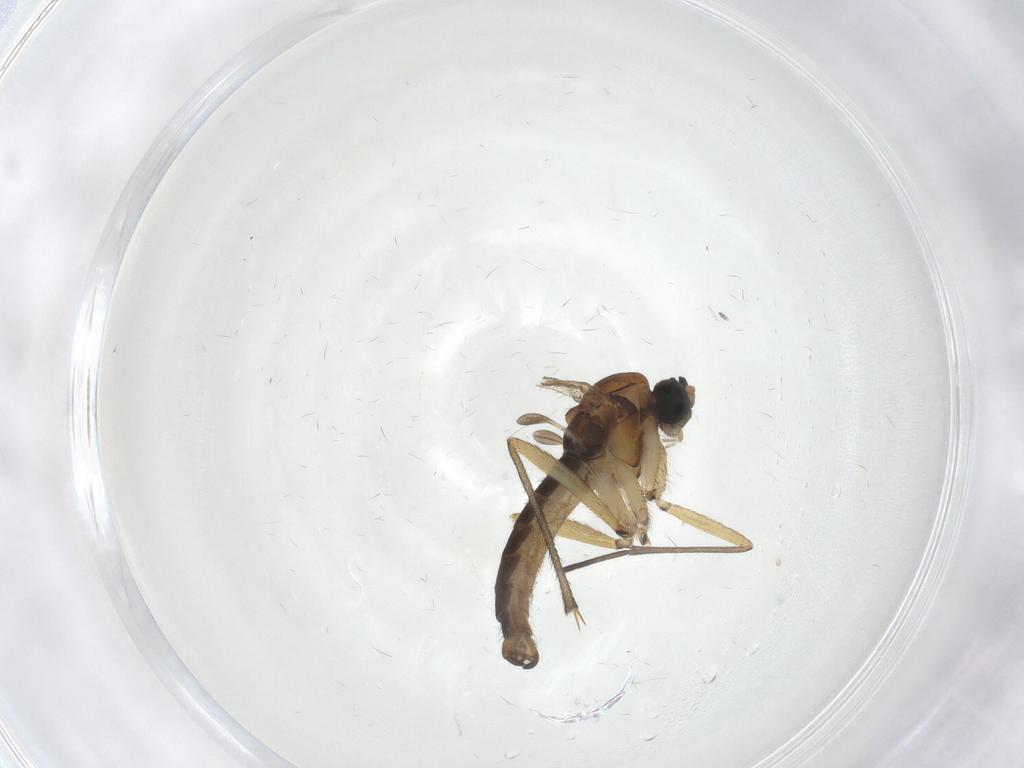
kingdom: Animalia
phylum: Arthropoda
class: Insecta
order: Diptera
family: Sciaridae
